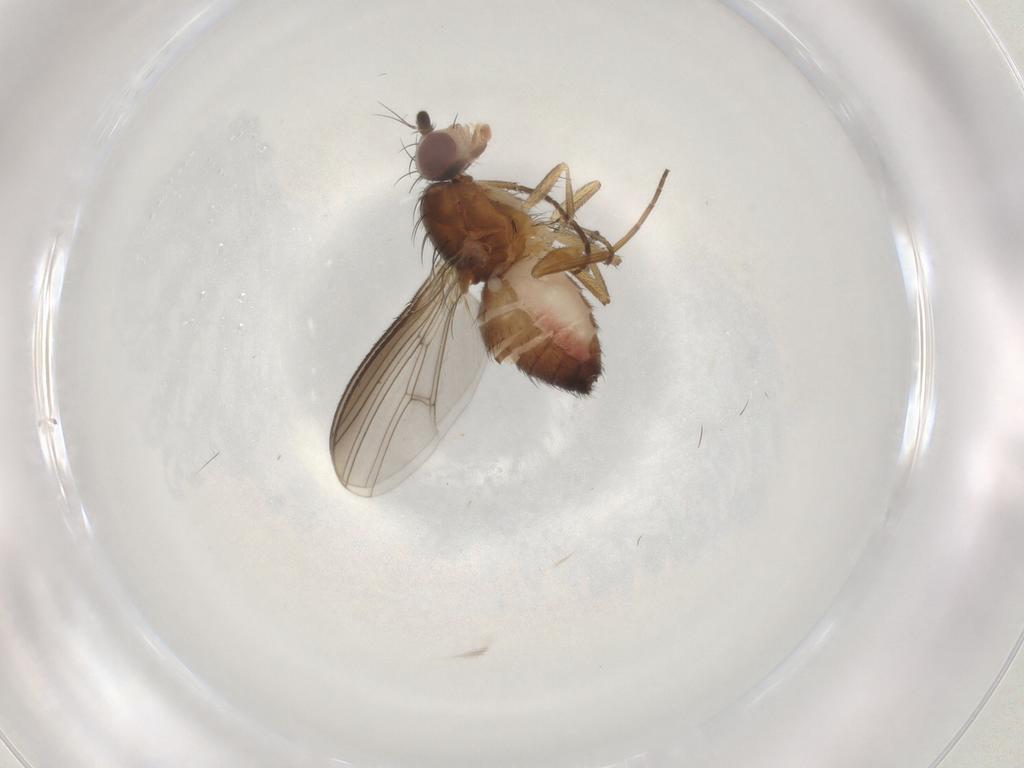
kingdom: Animalia
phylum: Arthropoda
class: Insecta
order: Diptera
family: Heleomyzidae
